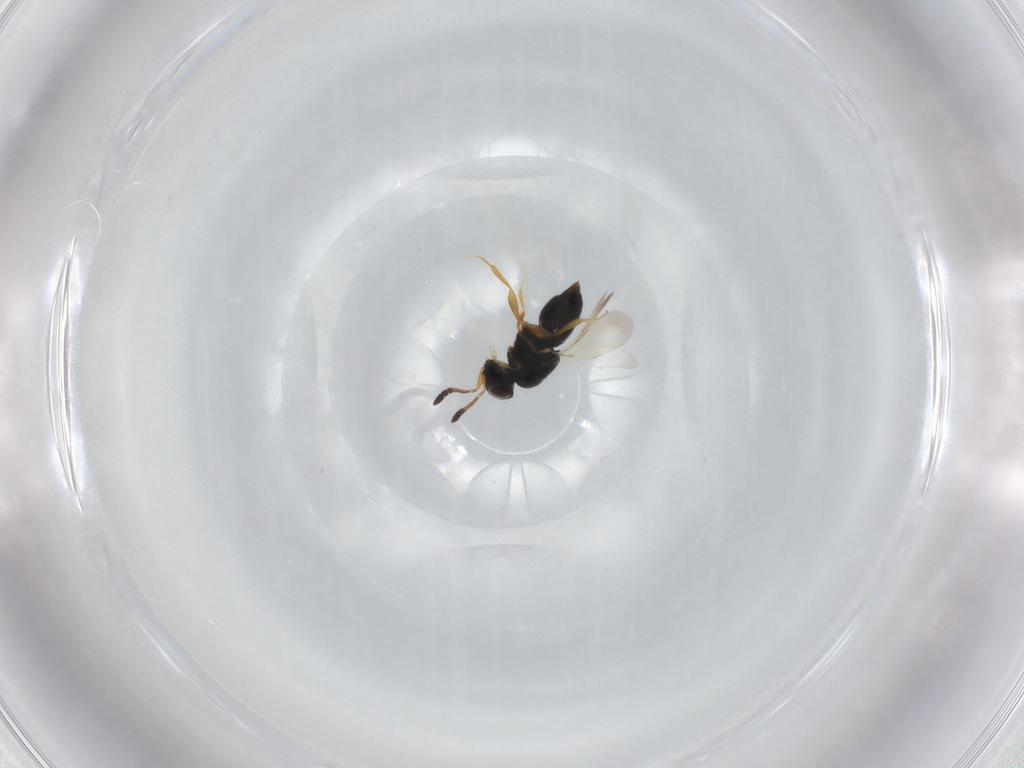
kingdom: Animalia
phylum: Arthropoda
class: Insecta
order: Hymenoptera
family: Ceraphronidae
